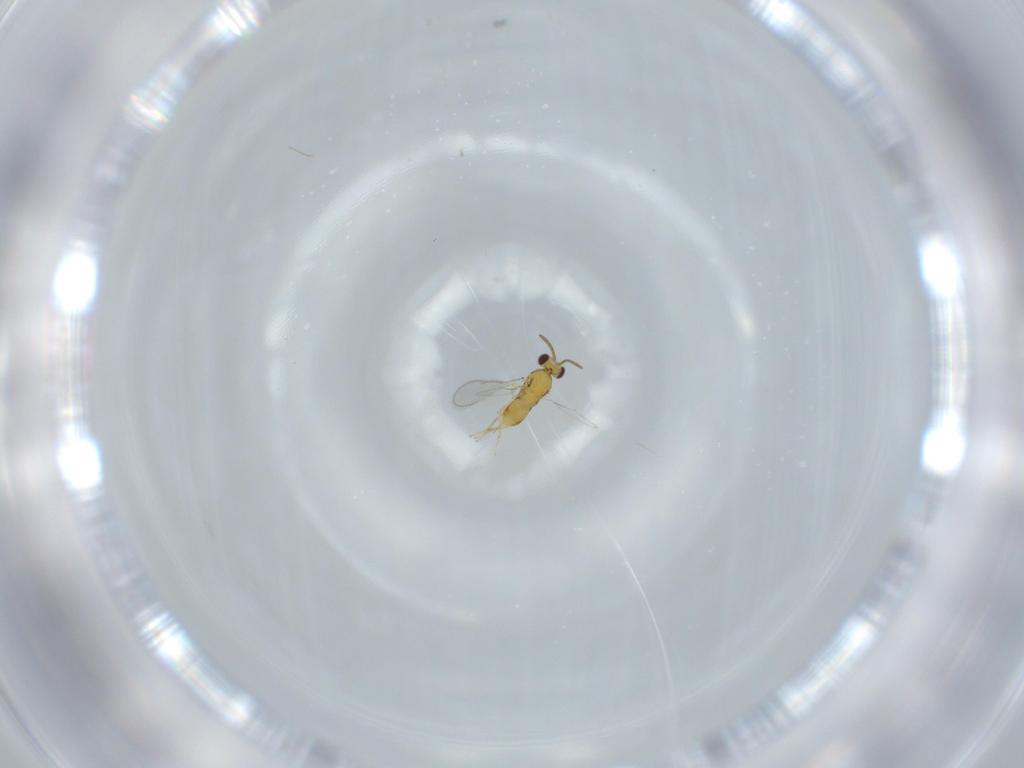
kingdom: Animalia
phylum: Arthropoda
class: Insecta
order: Hymenoptera
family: Aphelinidae
